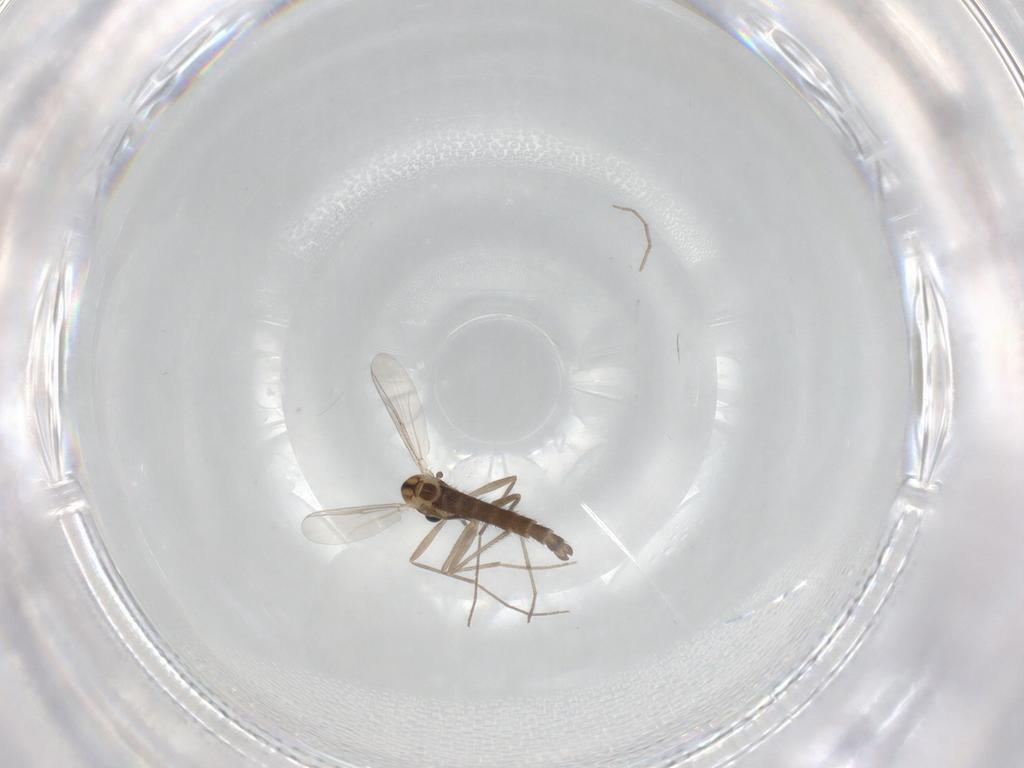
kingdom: Animalia
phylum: Arthropoda
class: Insecta
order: Diptera
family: Chironomidae
